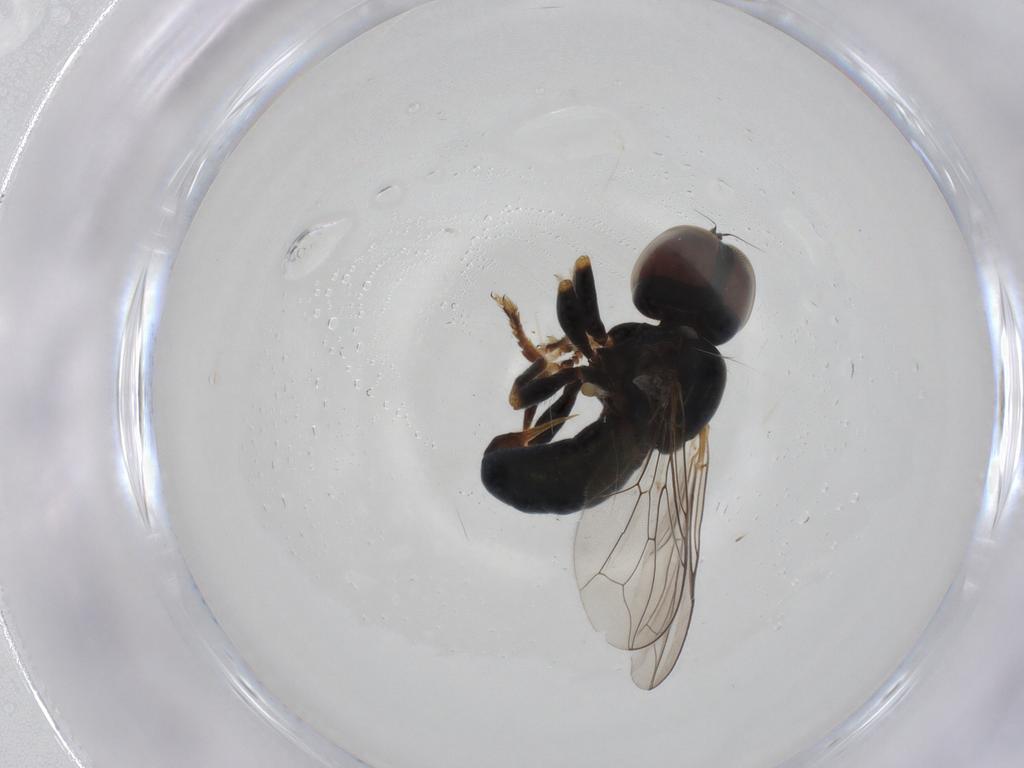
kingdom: Animalia
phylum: Arthropoda
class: Insecta
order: Diptera
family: Pipunculidae
